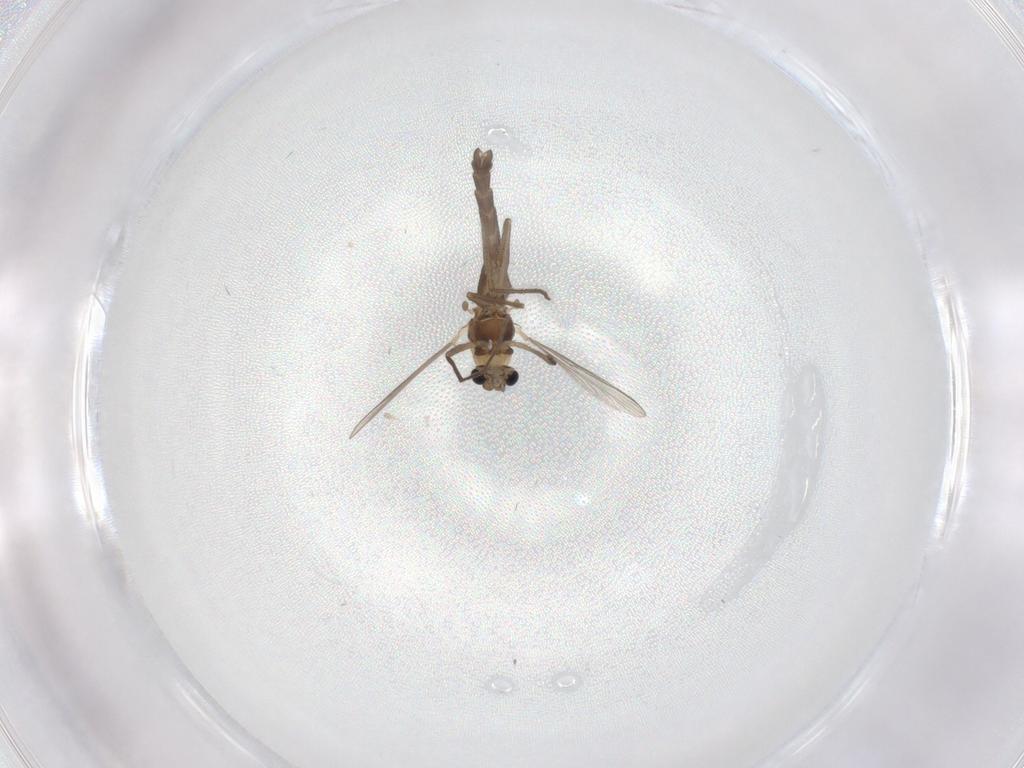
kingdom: Animalia
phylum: Arthropoda
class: Insecta
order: Diptera
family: Chironomidae
